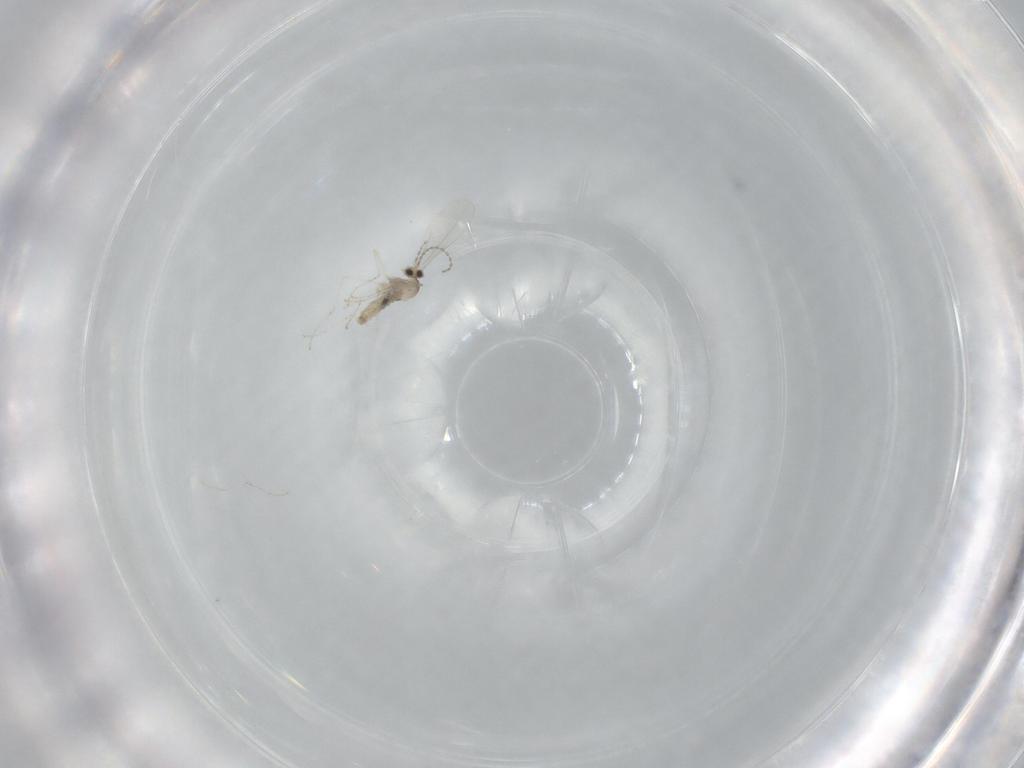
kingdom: Animalia
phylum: Arthropoda
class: Insecta
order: Diptera
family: Cecidomyiidae
